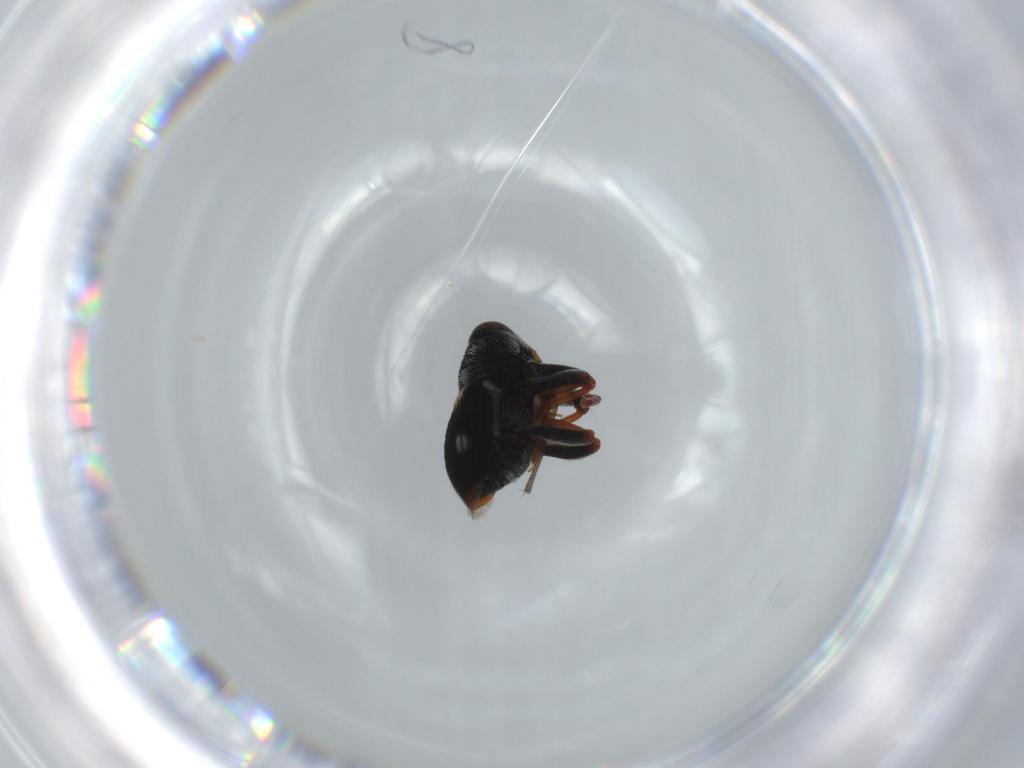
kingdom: Animalia
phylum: Arthropoda
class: Insecta
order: Coleoptera
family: Curculionidae
